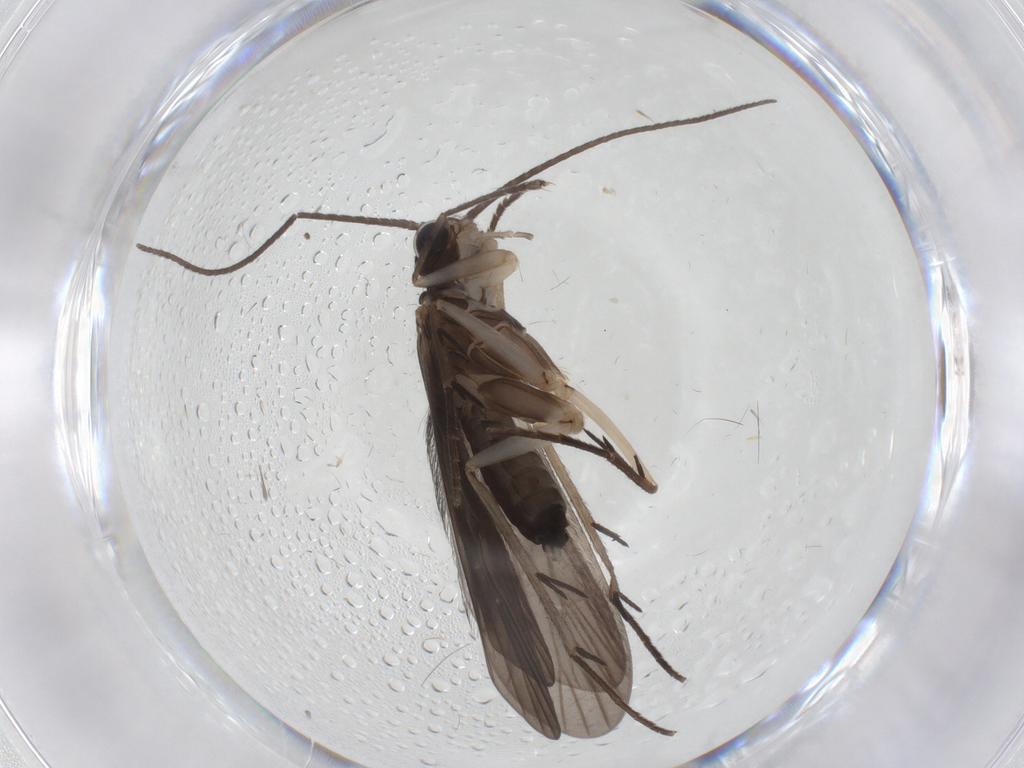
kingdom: Animalia
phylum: Arthropoda
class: Insecta
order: Trichoptera
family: Philopotamidae
